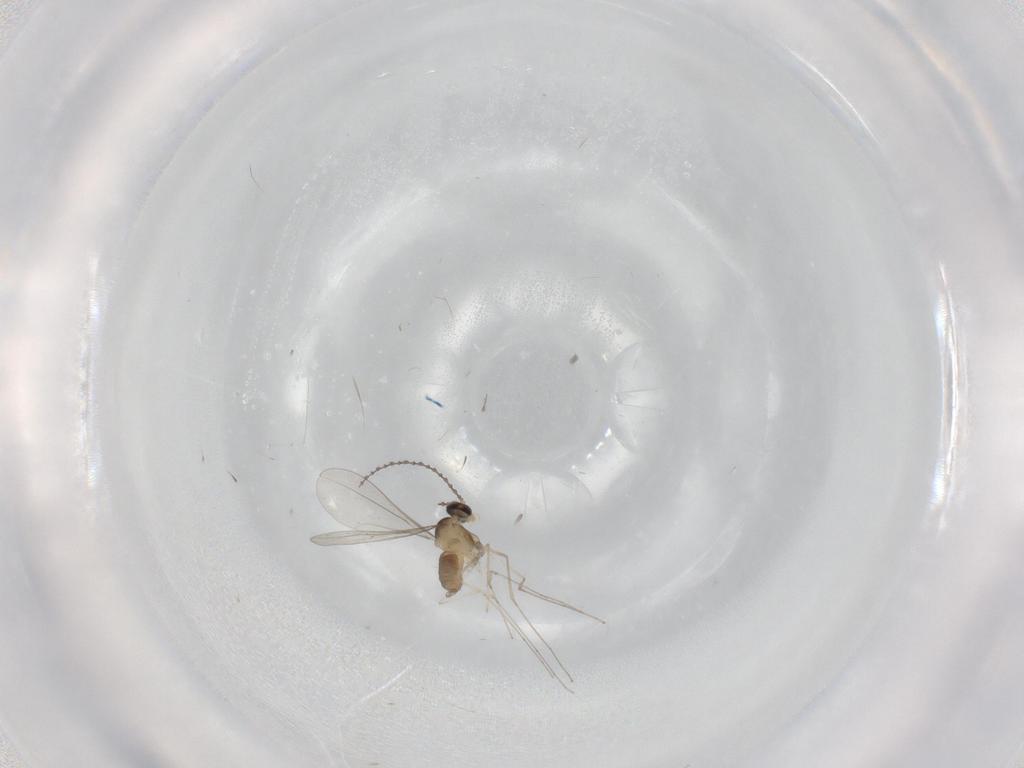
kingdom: Animalia
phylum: Arthropoda
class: Insecta
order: Diptera
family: Cecidomyiidae
